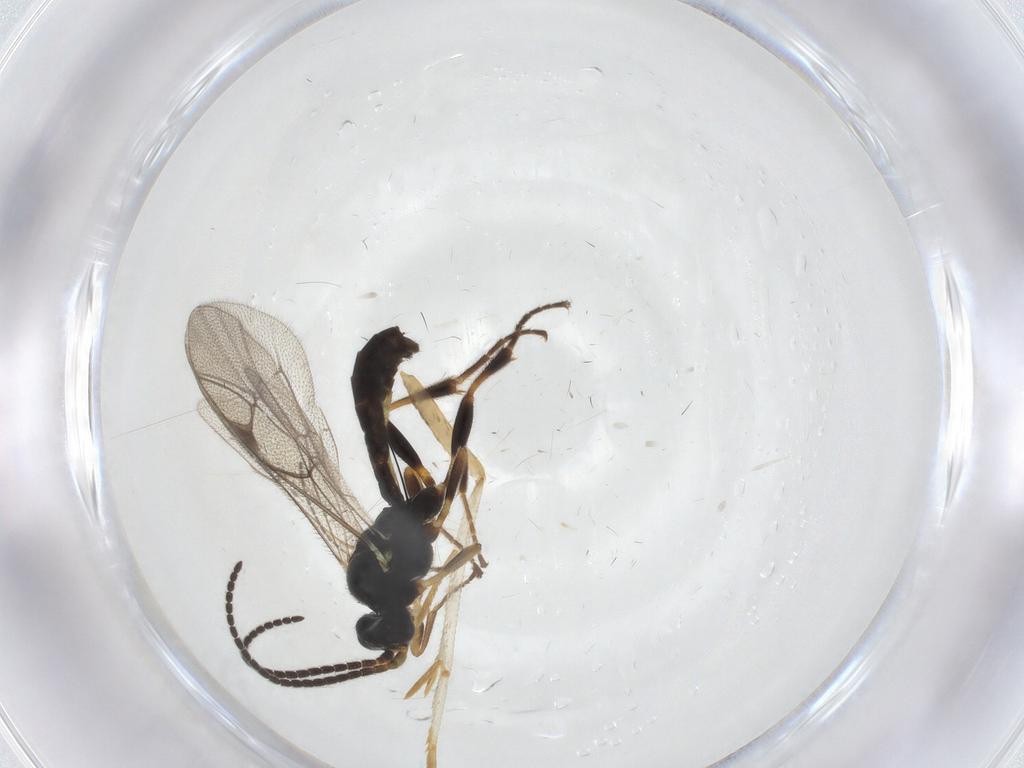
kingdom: Animalia
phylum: Arthropoda
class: Insecta
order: Hymenoptera
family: Ichneumonidae
